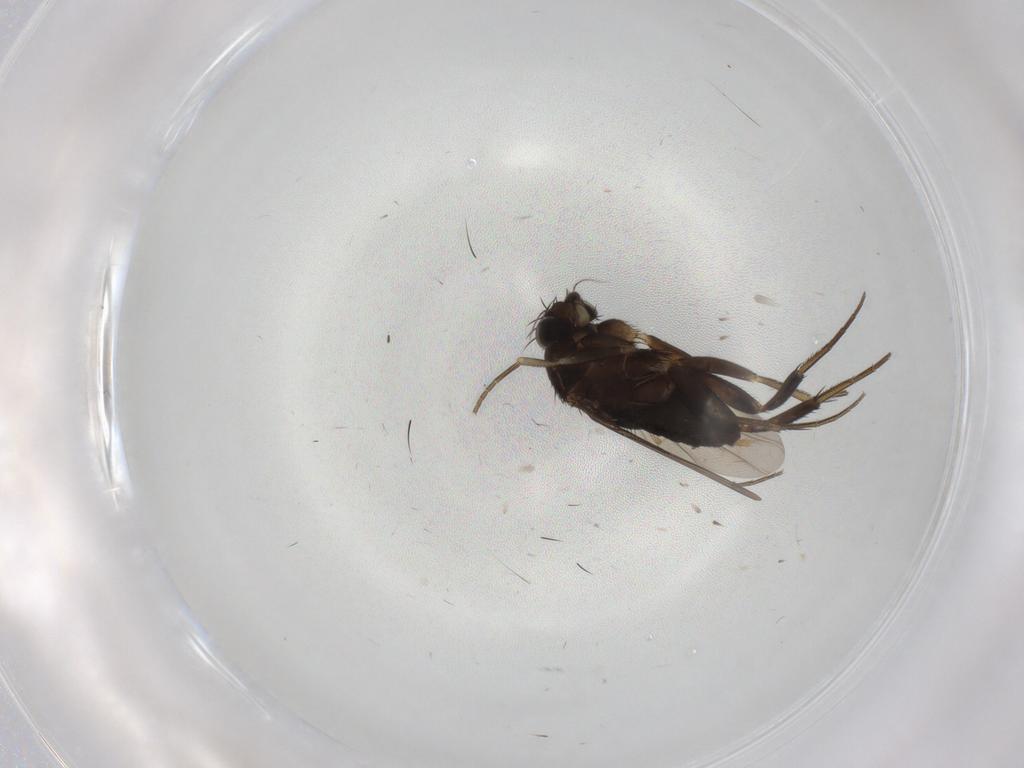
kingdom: Animalia
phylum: Arthropoda
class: Insecta
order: Diptera
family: Phoridae
